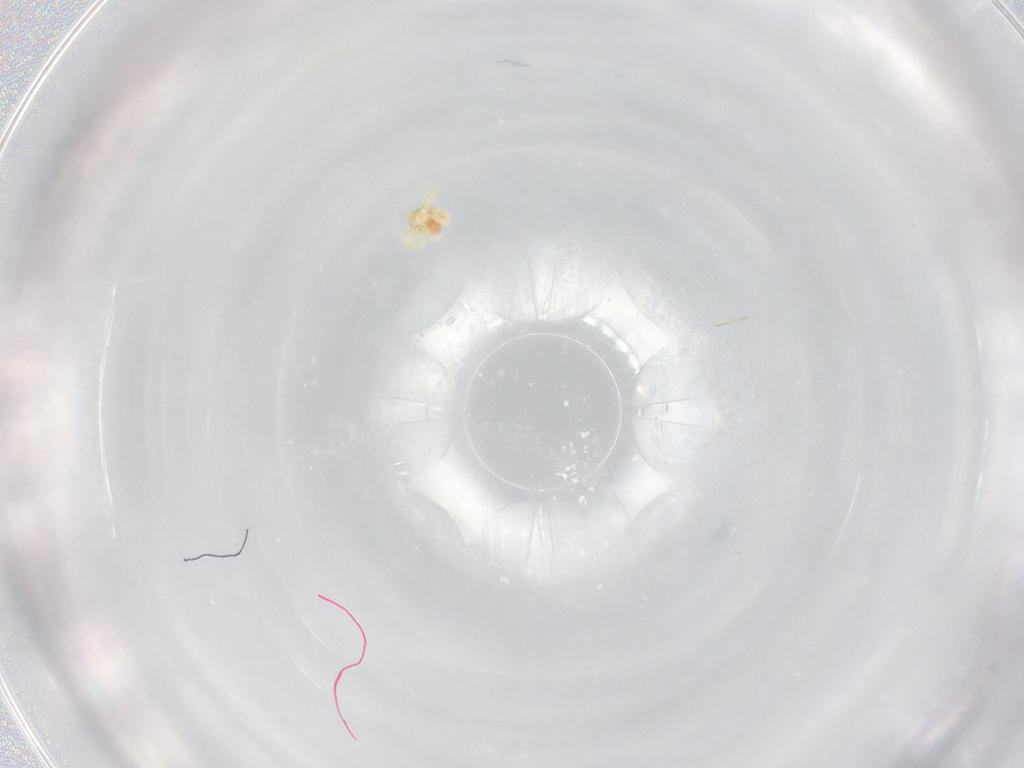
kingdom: Animalia
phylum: Arthropoda
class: Arachnida
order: Trombidiformes
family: Anystidae
